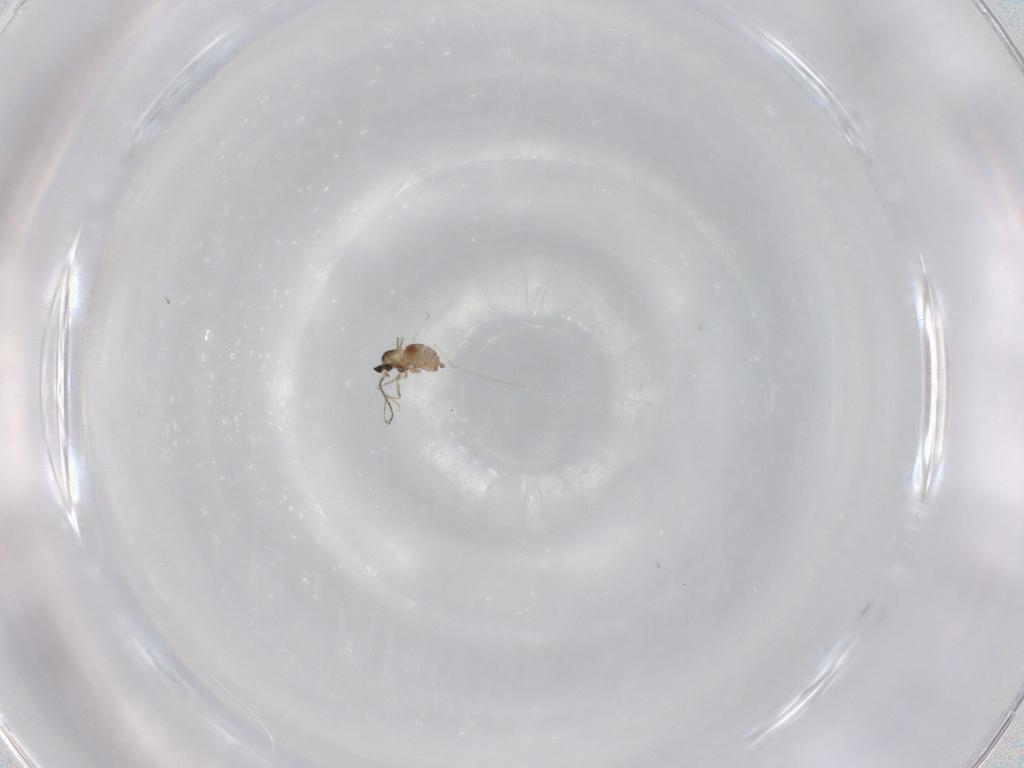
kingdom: Animalia
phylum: Arthropoda
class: Insecta
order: Diptera
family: Cecidomyiidae
